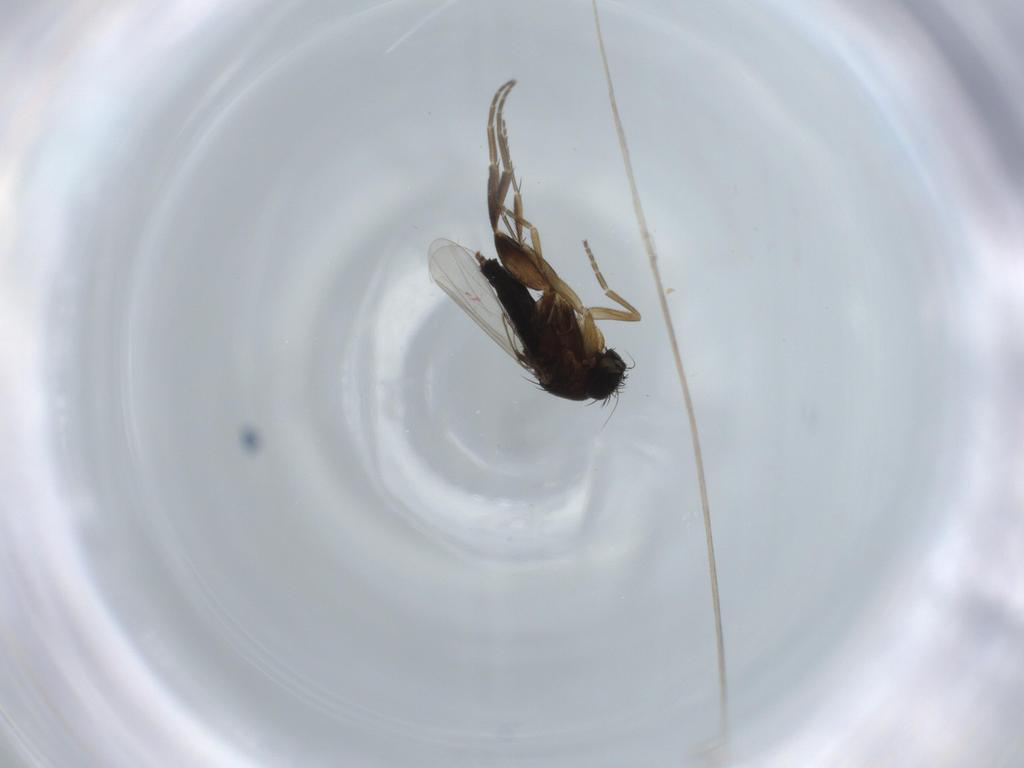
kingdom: Animalia
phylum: Arthropoda
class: Insecta
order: Diptera
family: Phoridae
